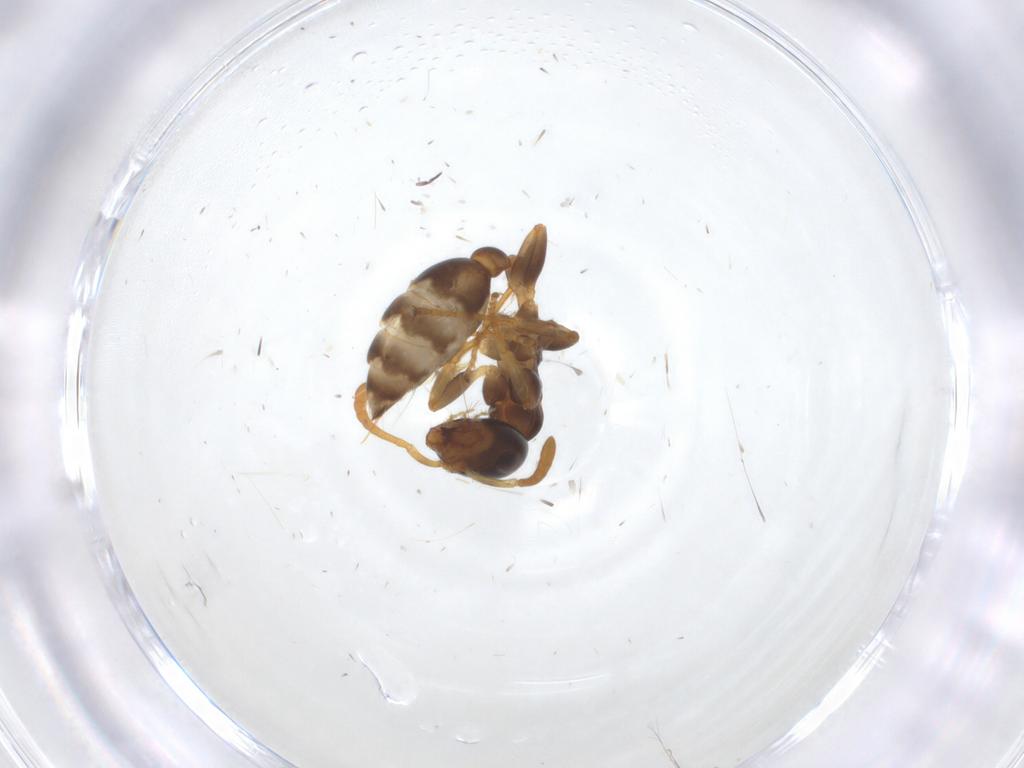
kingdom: Animalia
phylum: Arthropoda
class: Insecta
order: Hymenoptera
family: Formicidae
